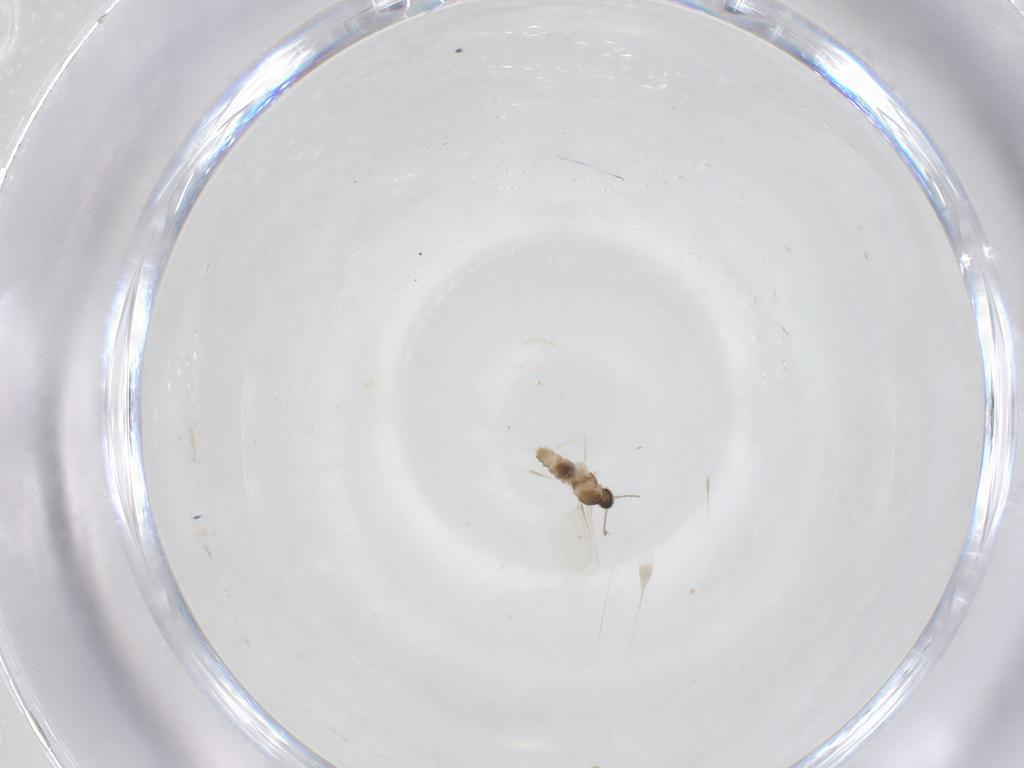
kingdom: Animalia
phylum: Arthropoda
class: Insecta
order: Diptera
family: Cecidomyiidae
